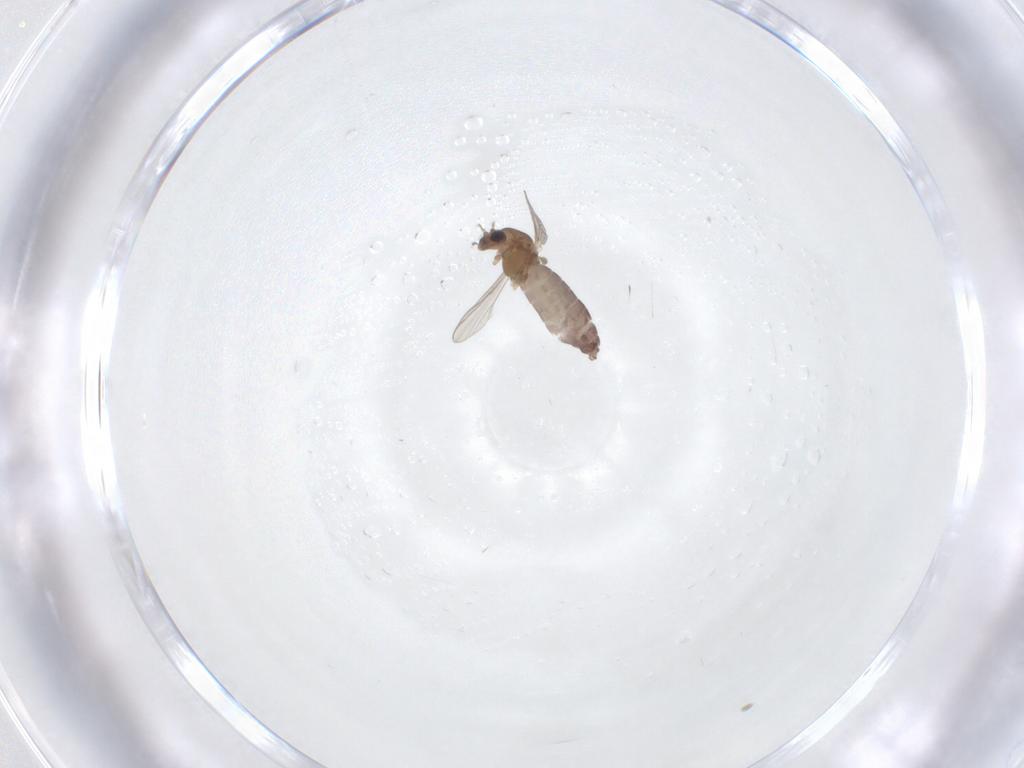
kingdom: Animalia
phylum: Arthropoda
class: Insecta
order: Diptera
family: Chironomidae
